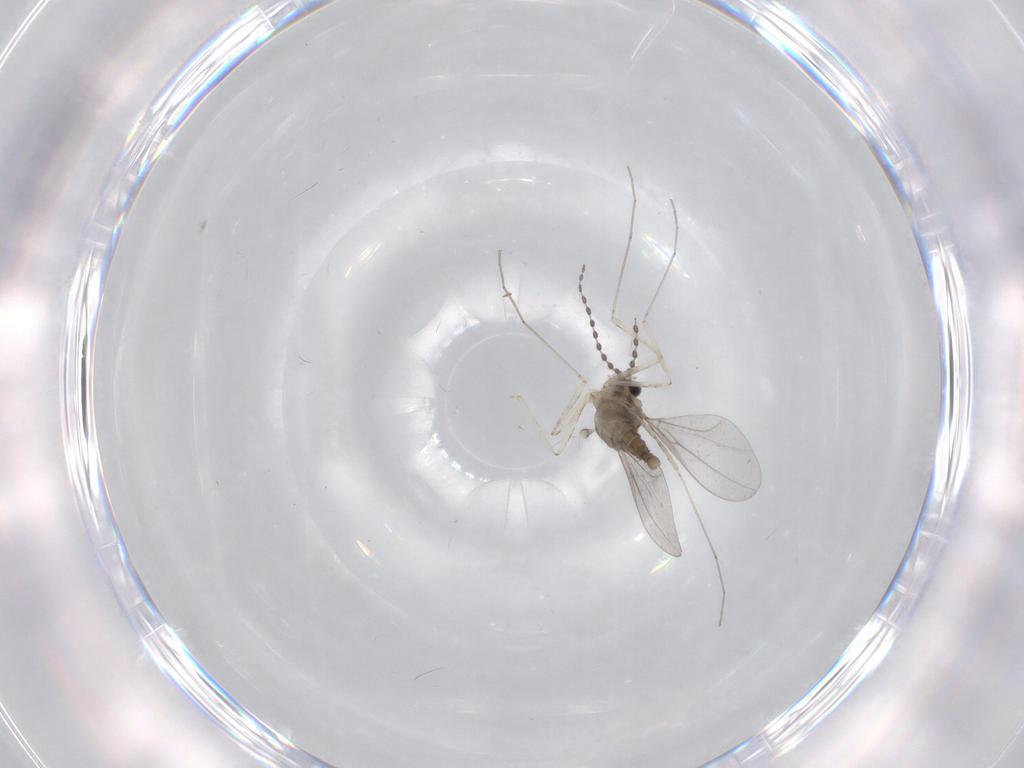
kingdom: Animalia
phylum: Arthropoda
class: Insecta
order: Diptera
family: Cecidomyiidae
